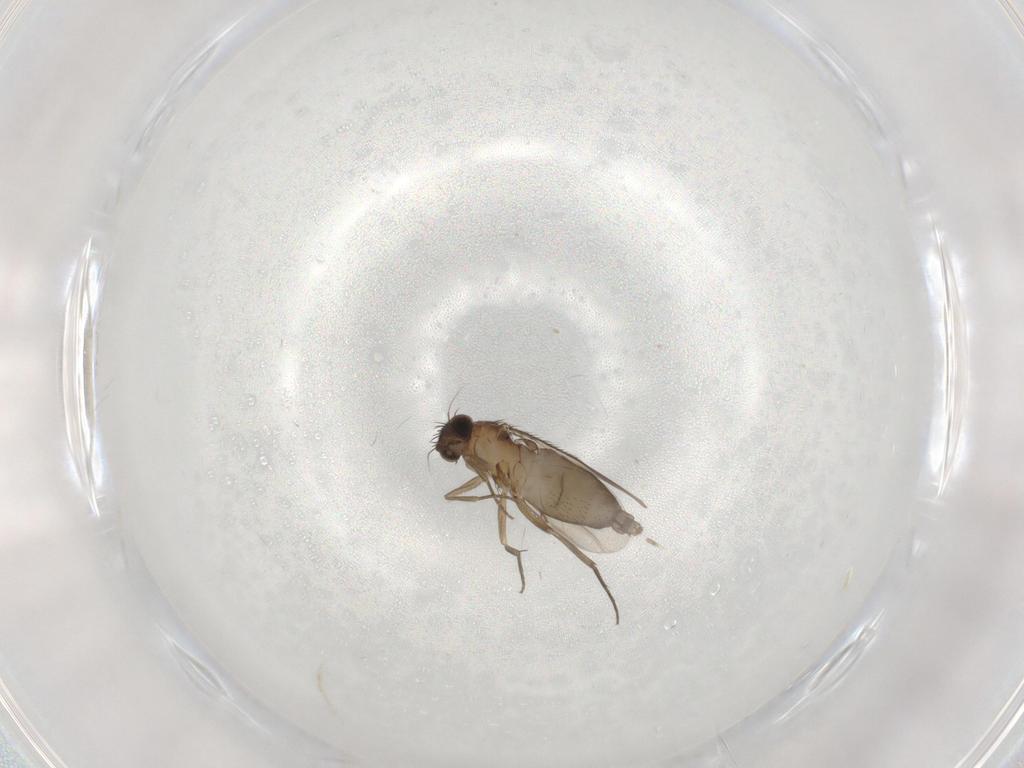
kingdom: Animalia
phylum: Arthropoda
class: Insecta
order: Diptera
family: Phoridae
